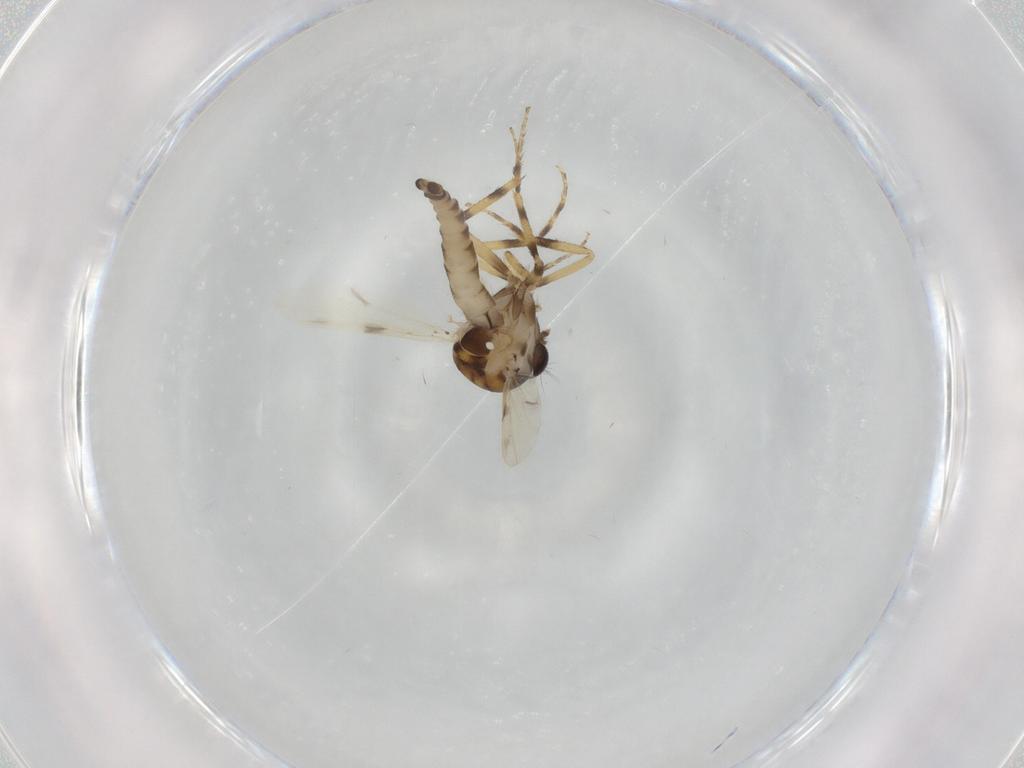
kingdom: Animalia
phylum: Arthropoda
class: Insecta
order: Diptera
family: Ceratopogonidae
